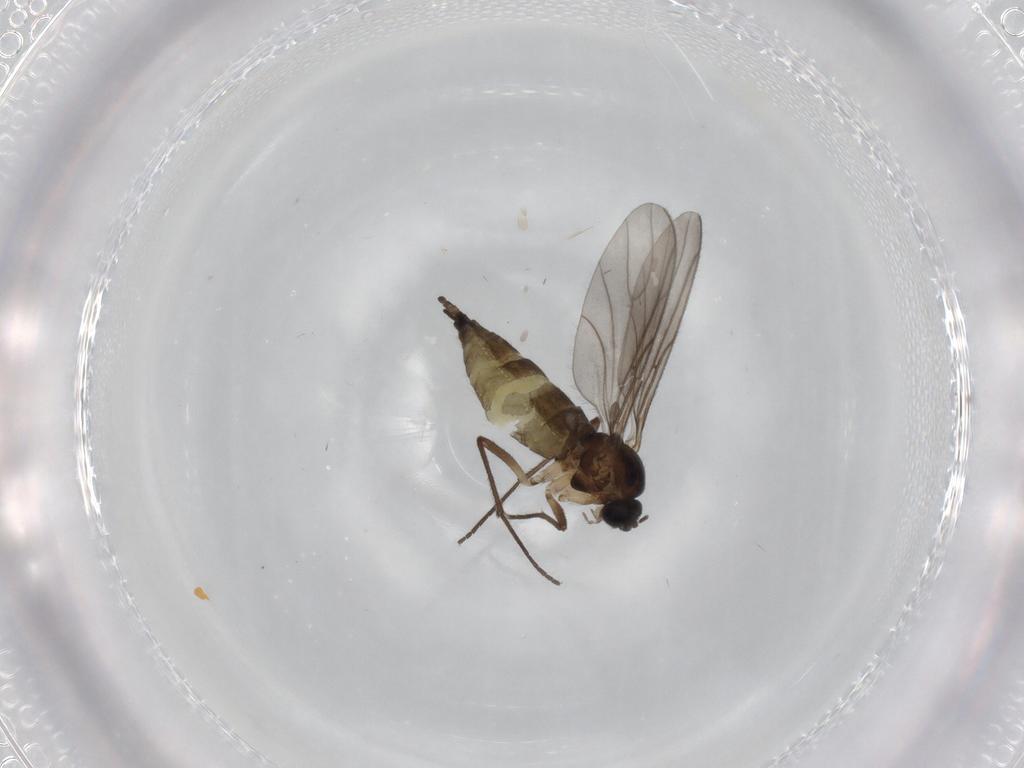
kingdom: Animalia
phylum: Arthropoda
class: Insecta
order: Diptera
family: Sciaridae
